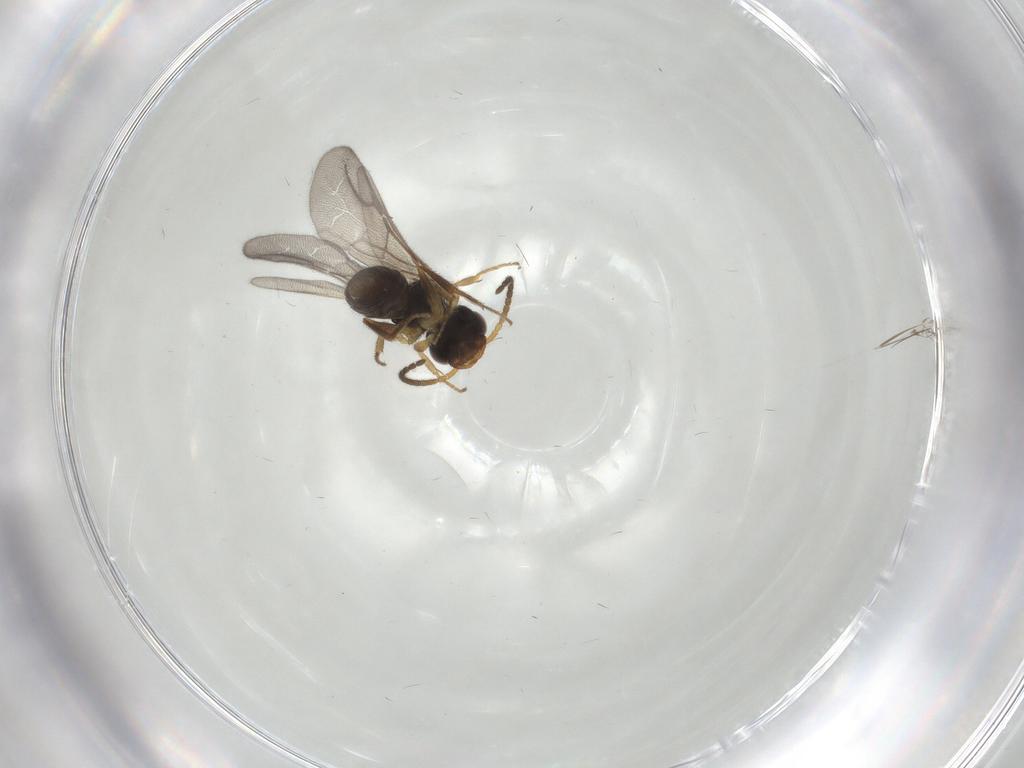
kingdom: Animalia
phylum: Arthropoda
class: Insecta
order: Hymenoptera
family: Bethylidae
